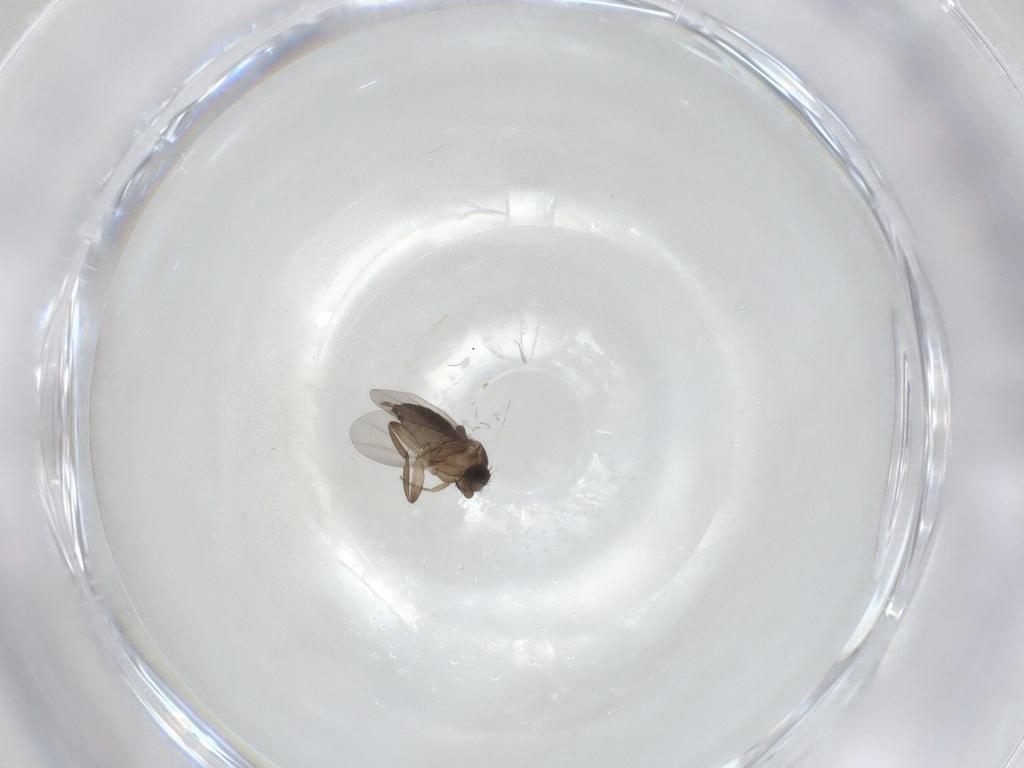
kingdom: Animalia
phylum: Arthropoda
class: Insecta
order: Diptera
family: Phoridae
